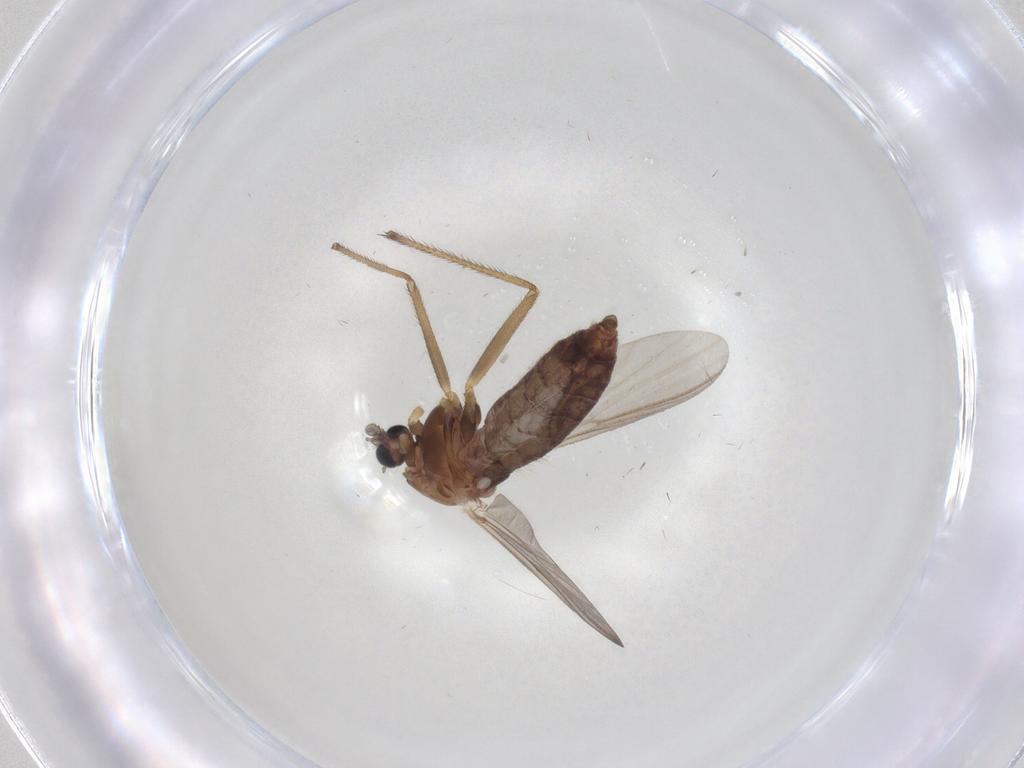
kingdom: Animalia
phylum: Arthropoda
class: Insecta
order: Diptera
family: Chironomidae
